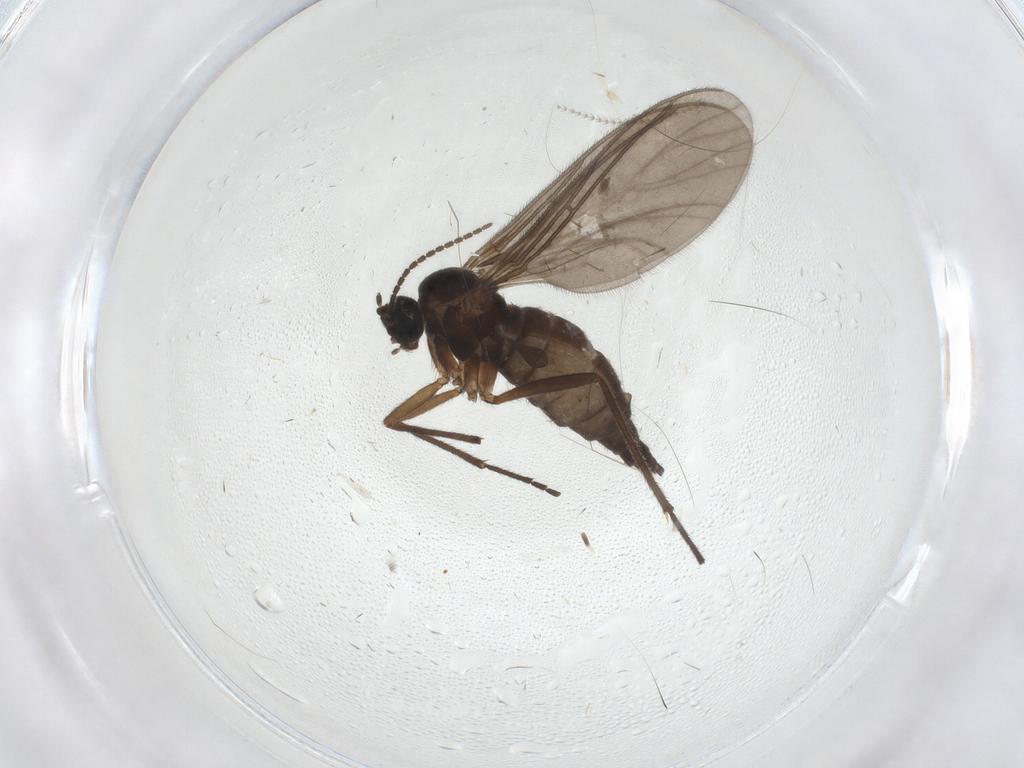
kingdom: Animalia
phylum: Arthropoda
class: Insecta
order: Diptera
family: Sciaridae
